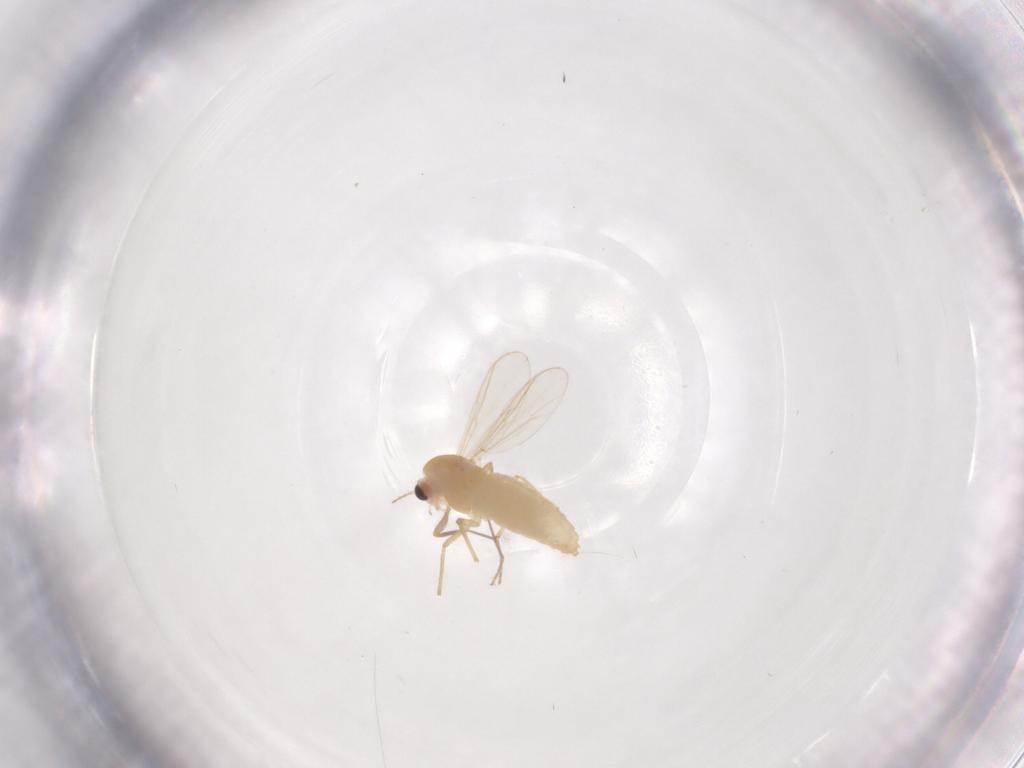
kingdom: Animalia
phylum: Arthropoda
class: Insecta
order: Diptera
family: Chironomidae
